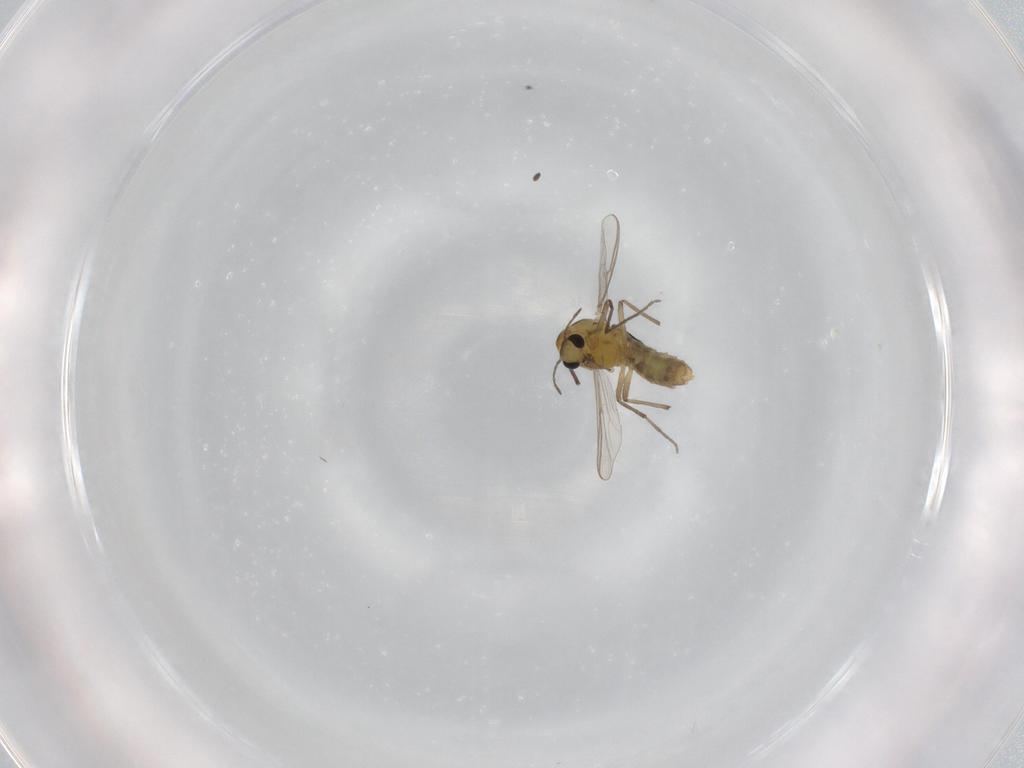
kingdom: Animalia
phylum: Arthropoda
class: Insecta
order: Diptera
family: Chironomidae
